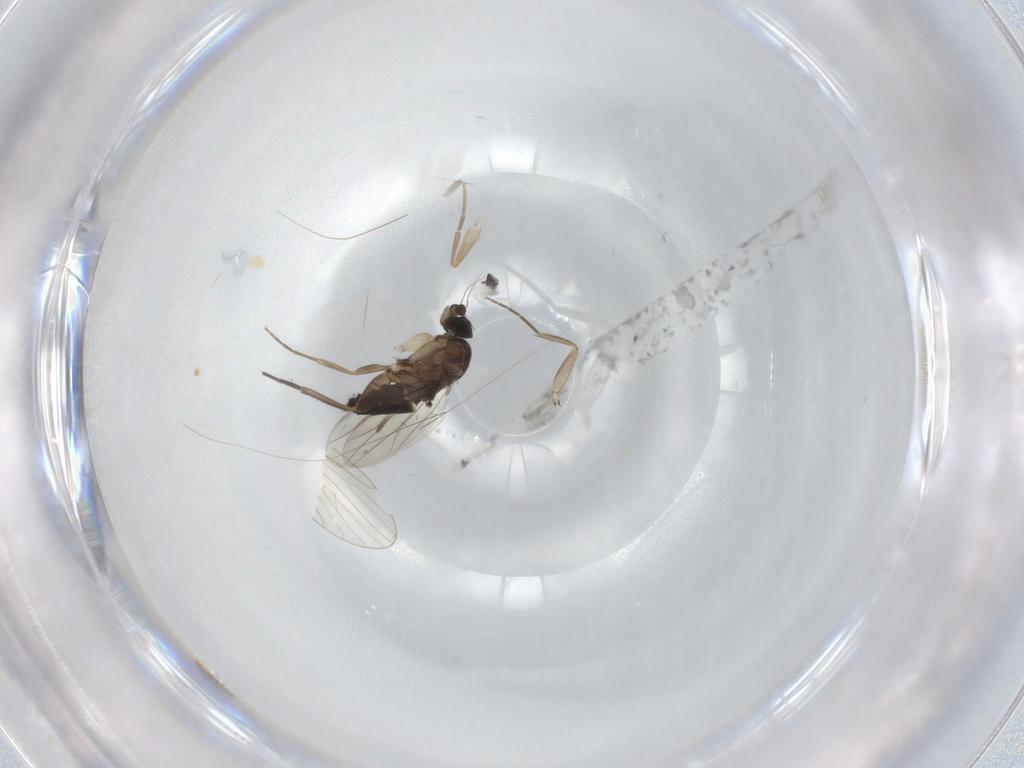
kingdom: Animalia
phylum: Arthropoda
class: Insecta
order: Diptera
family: Phoridae
